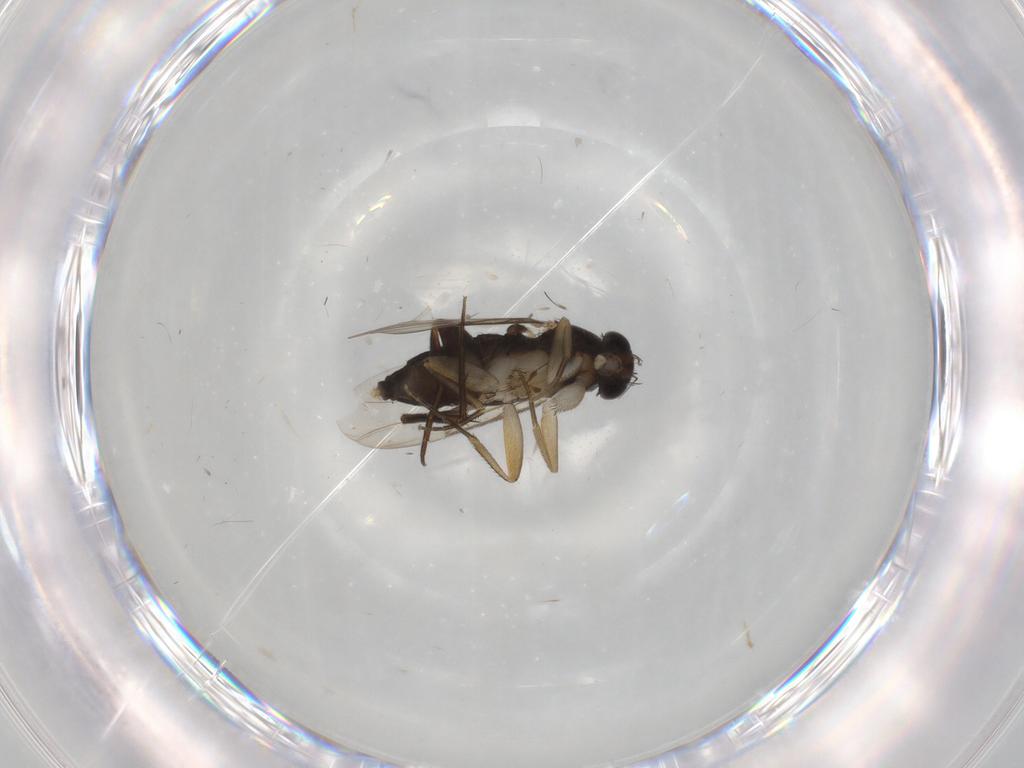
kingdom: Animalia
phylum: Arthropoda
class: Insecta
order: Diptera
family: Phoridae
